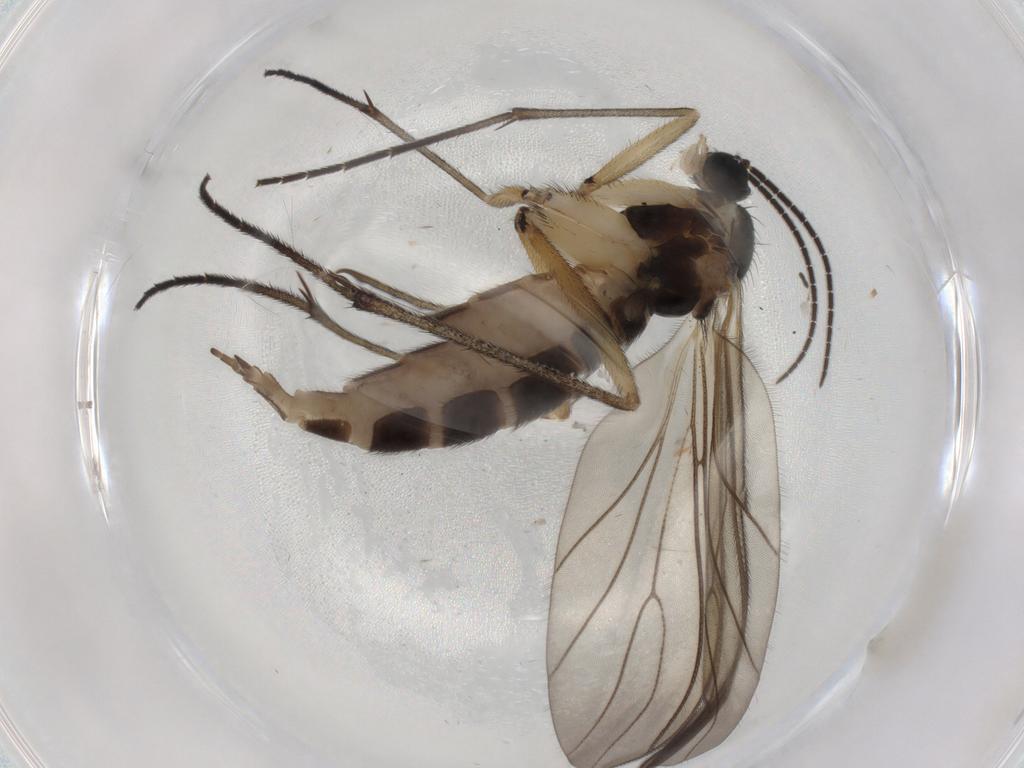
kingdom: Animalia
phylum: Arthropoda
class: Insecta
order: Diptera
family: Sciaridae
